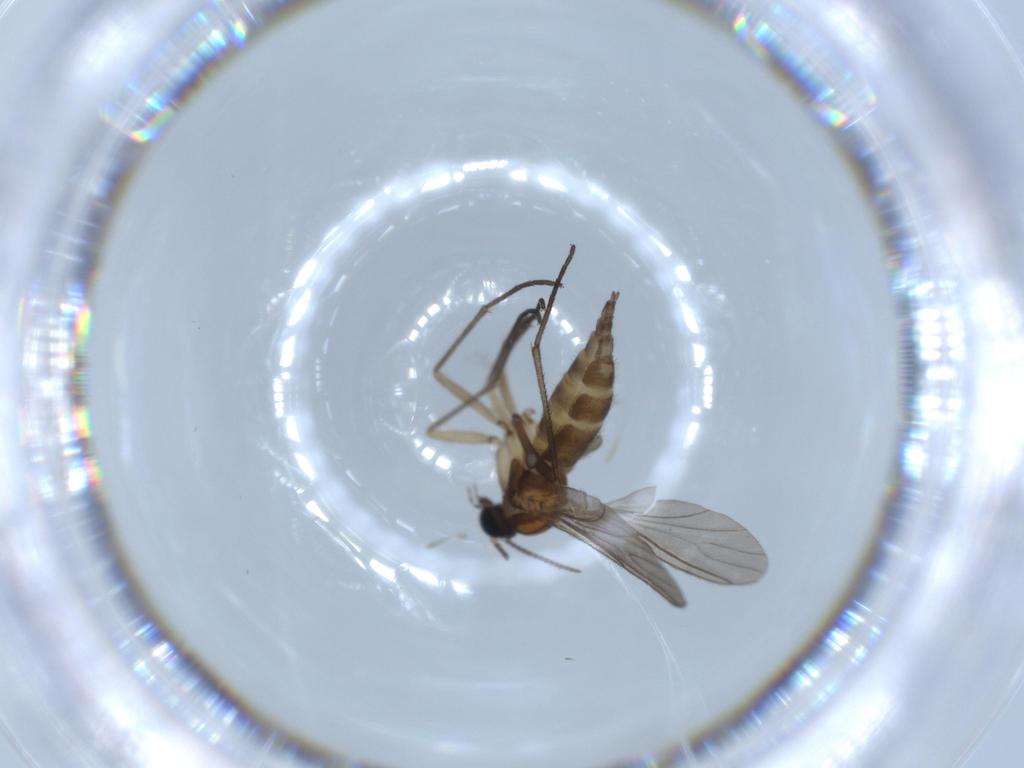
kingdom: Animalia
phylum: Arthropoda
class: Insecta
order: Diptera
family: Sciaridae
